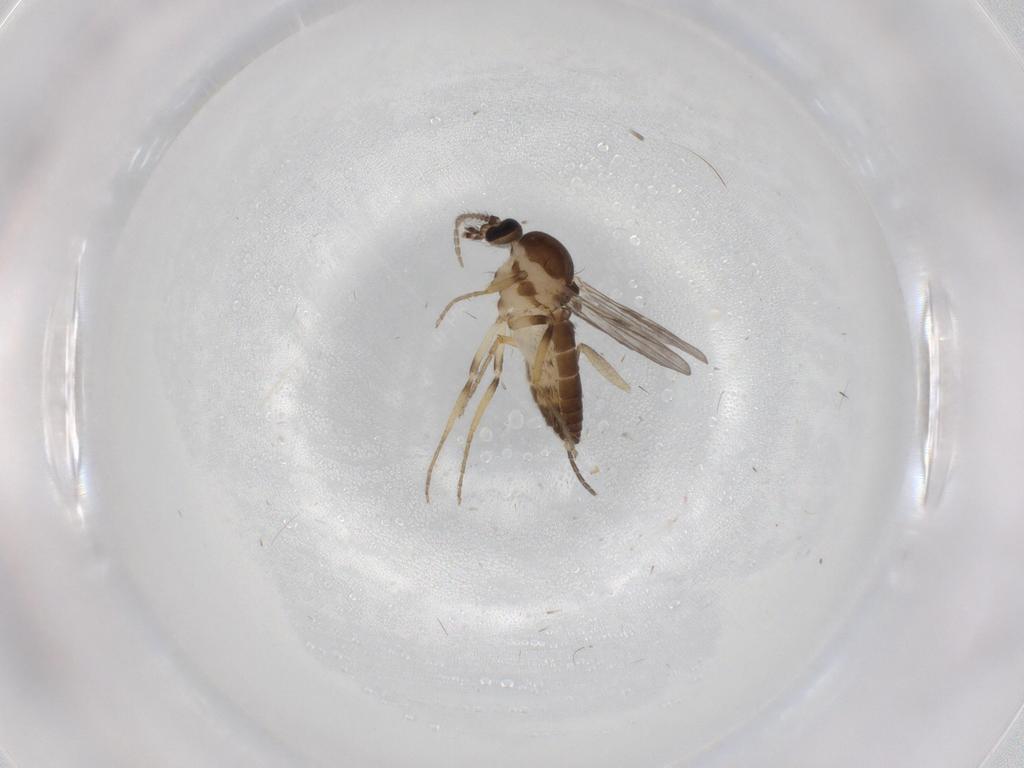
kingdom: Animalia
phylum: Arthropoda
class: Insecta
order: Diptera
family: Ceratopogonidae
